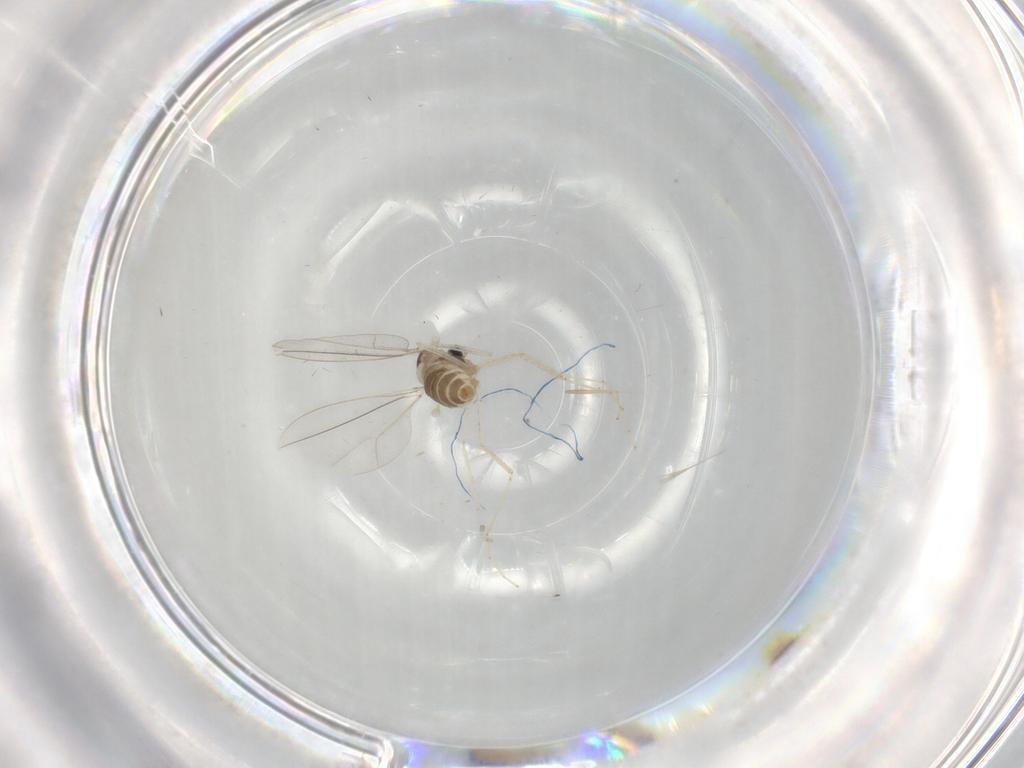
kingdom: Animalia
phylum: Arthropoda
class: Insecta
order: Diptera
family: Cecidomyiidae
